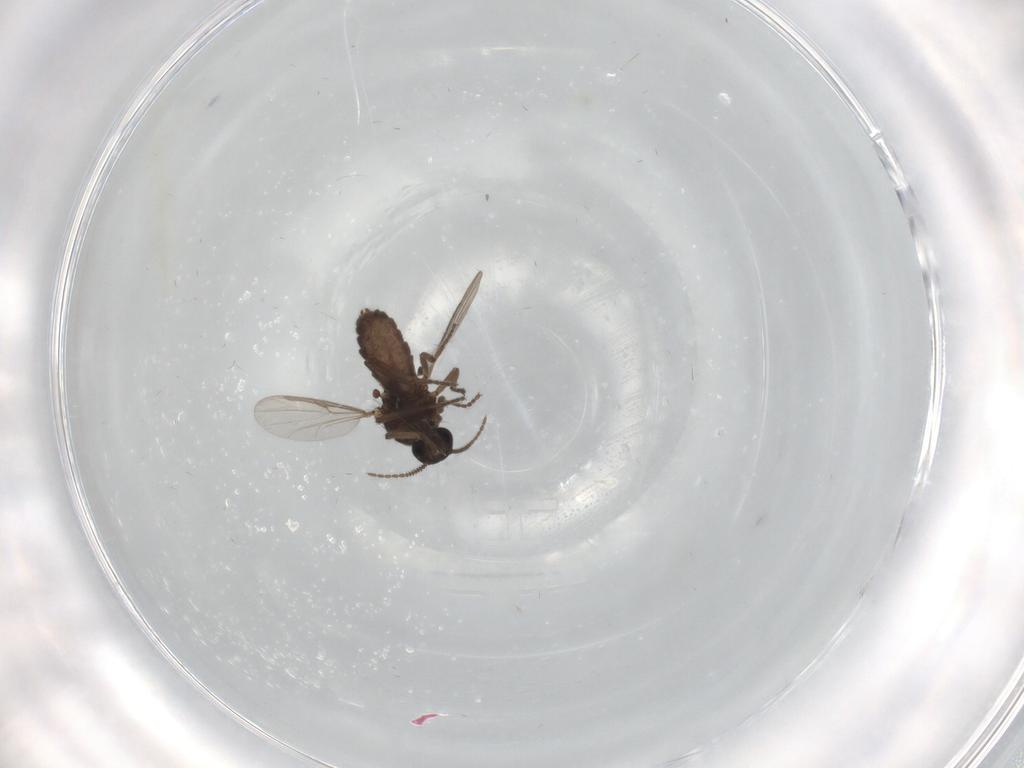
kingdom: Animalia
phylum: Arthropoda
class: Insecta
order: Diptera
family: Ceratopogonidae
